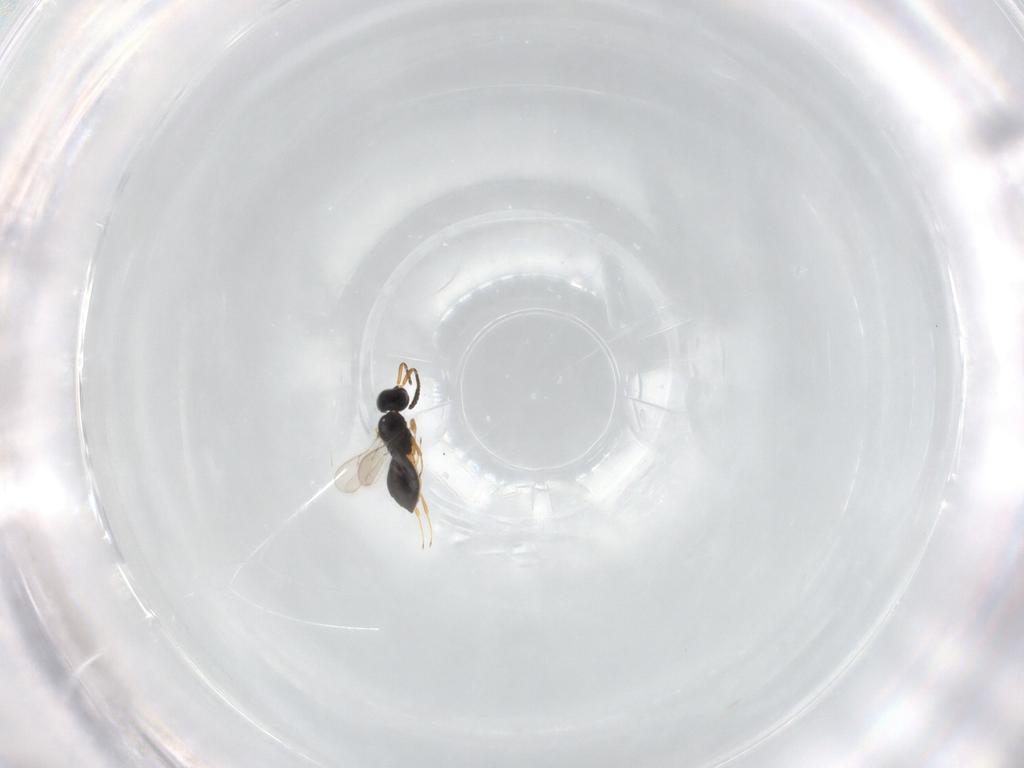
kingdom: Animalia
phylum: Arthropoda
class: Insecta
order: Hymenoptera
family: Scelionidae
